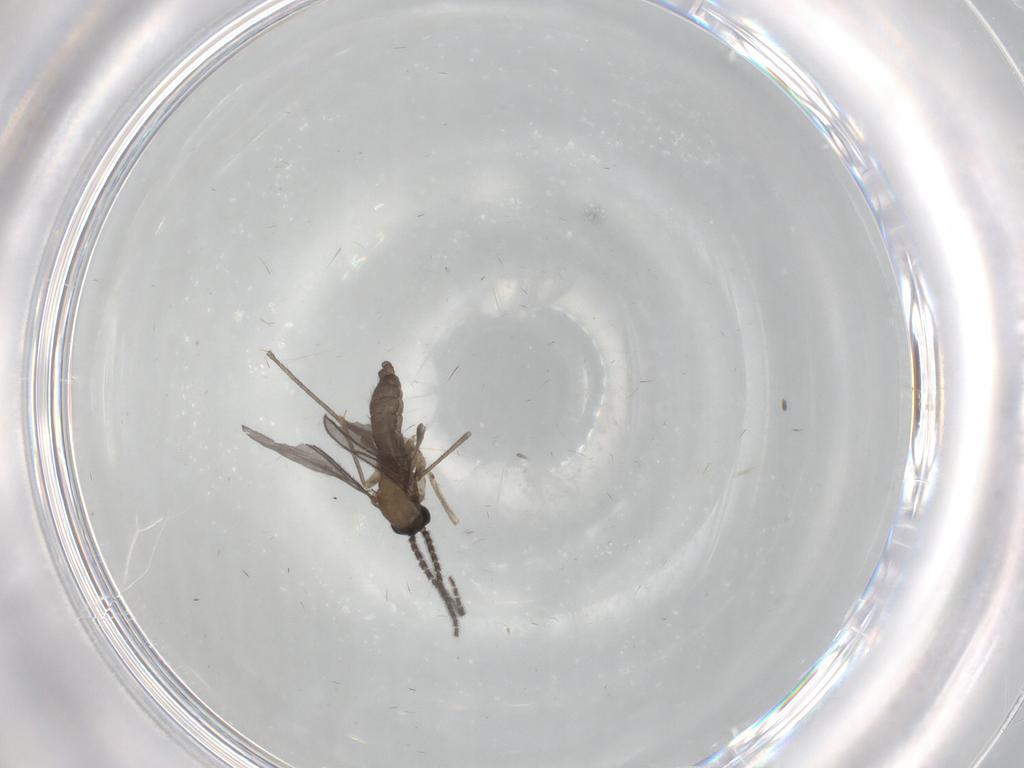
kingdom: Animalia
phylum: Arthropoda
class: Insecta
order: Diptera
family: Sciaridae
